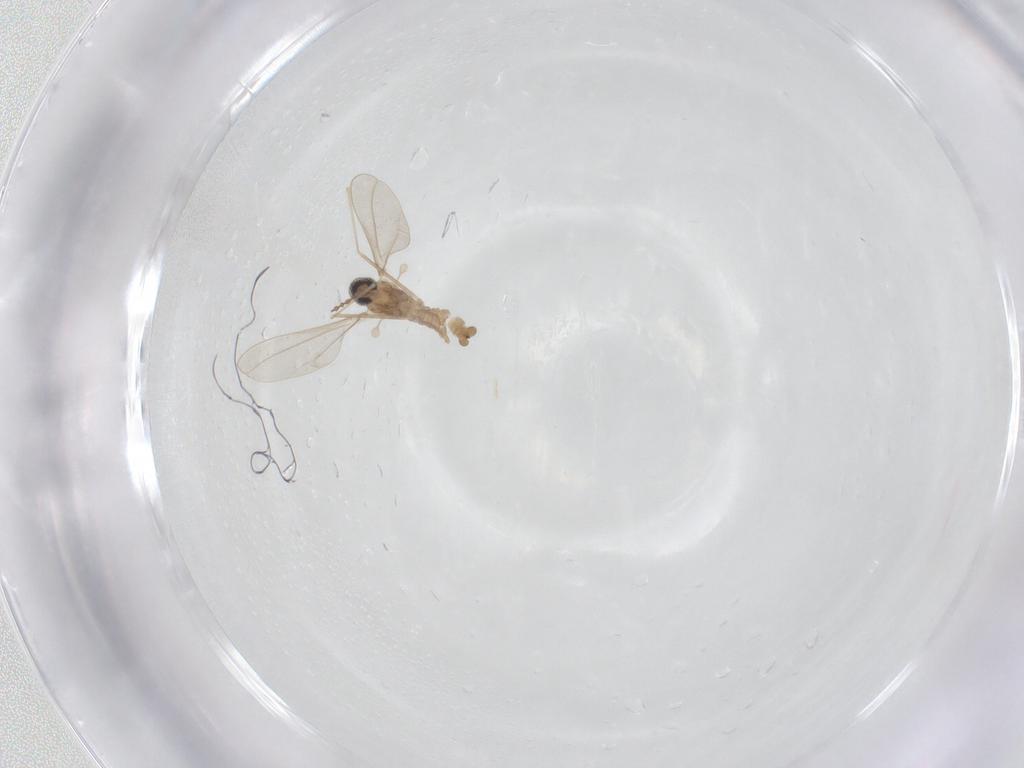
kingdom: Animalia
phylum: Arthropoda
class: Insecta
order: Diptera
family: Cecidomyiidae
